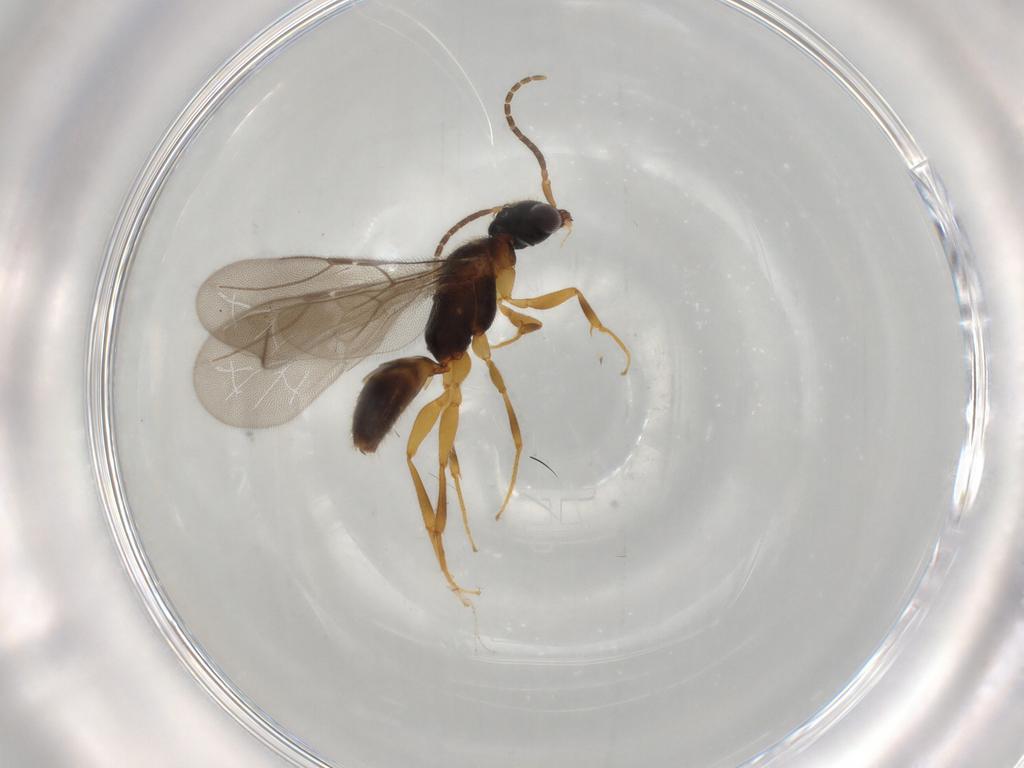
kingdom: Animalia
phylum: Arthropoda
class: Insecta
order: Hymenoptera
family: Bethylidae
